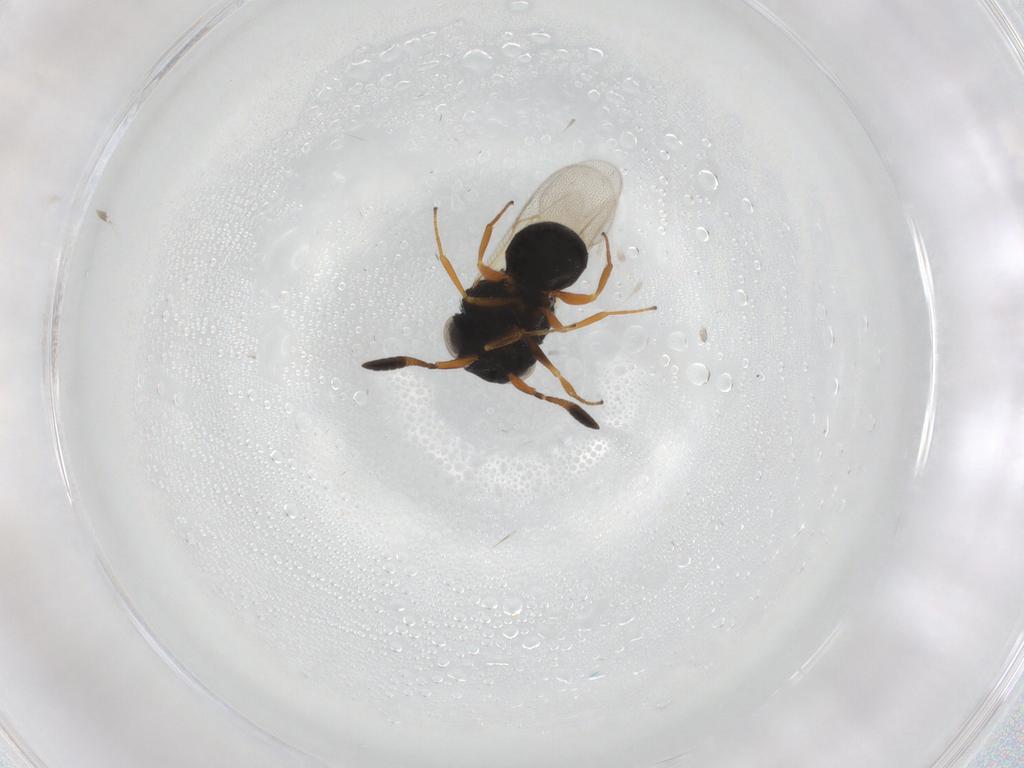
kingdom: Animalia
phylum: Arthropoda
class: Insecta
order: Hymenoptera
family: Scelionidae
